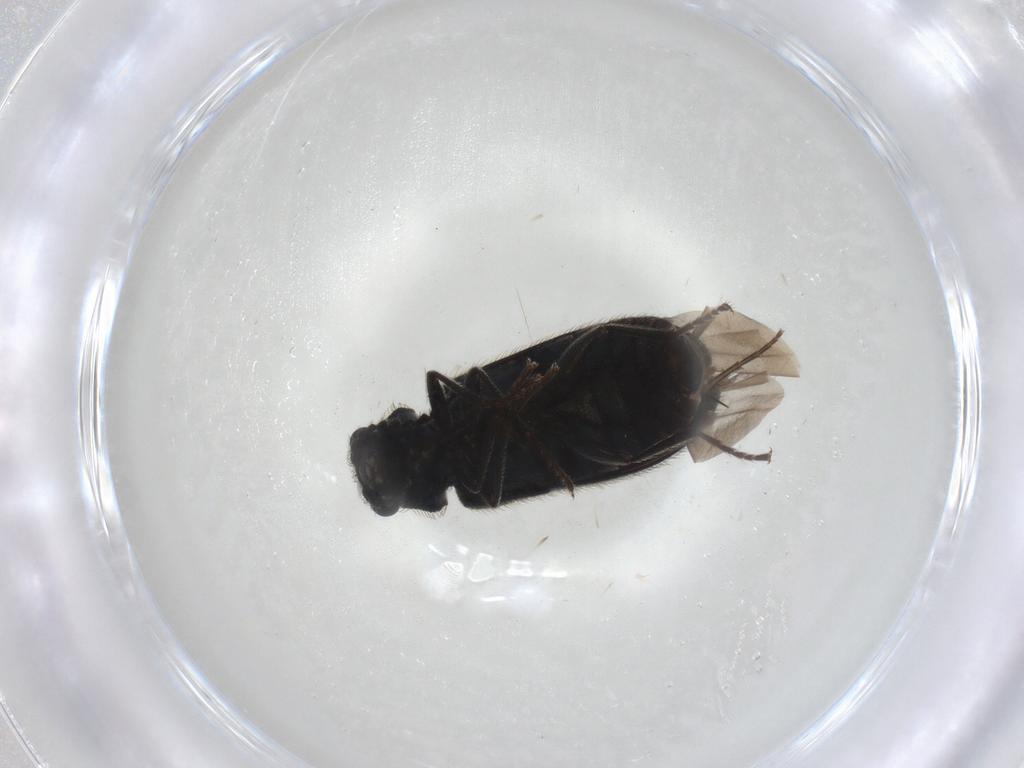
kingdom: Animalia
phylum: Arthropoda
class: Insecta
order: Coleoptera
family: Melyridae
